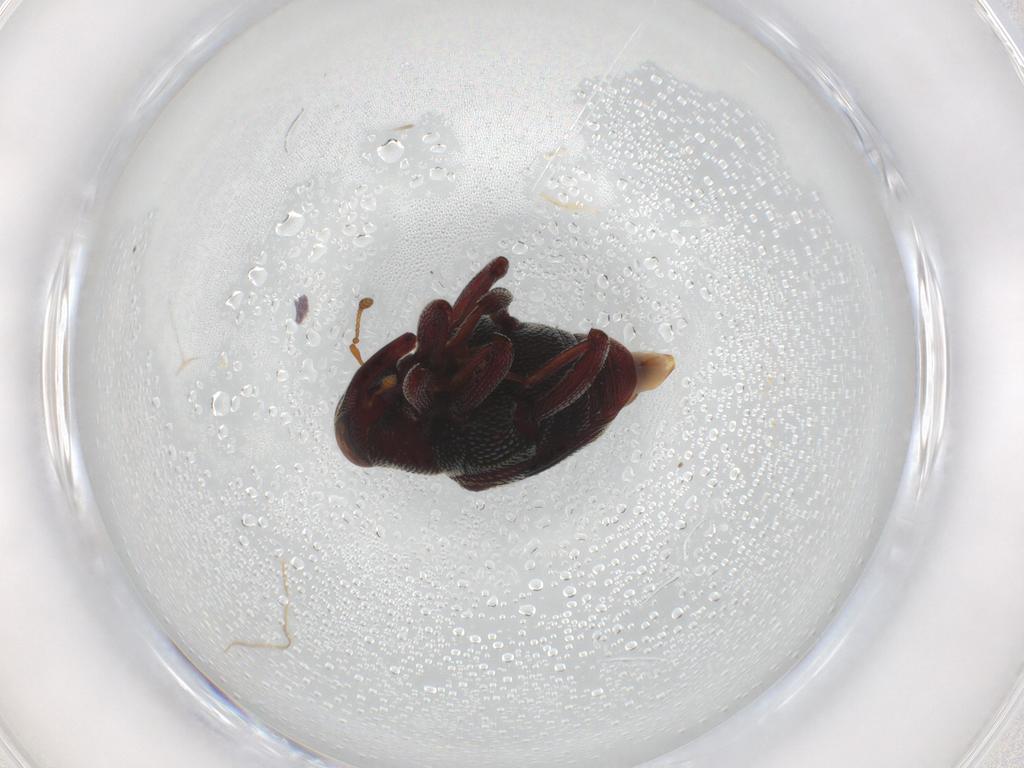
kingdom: Animalia
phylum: Arthropoda
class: Insecta
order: Coleoptera
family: Curculionidae
